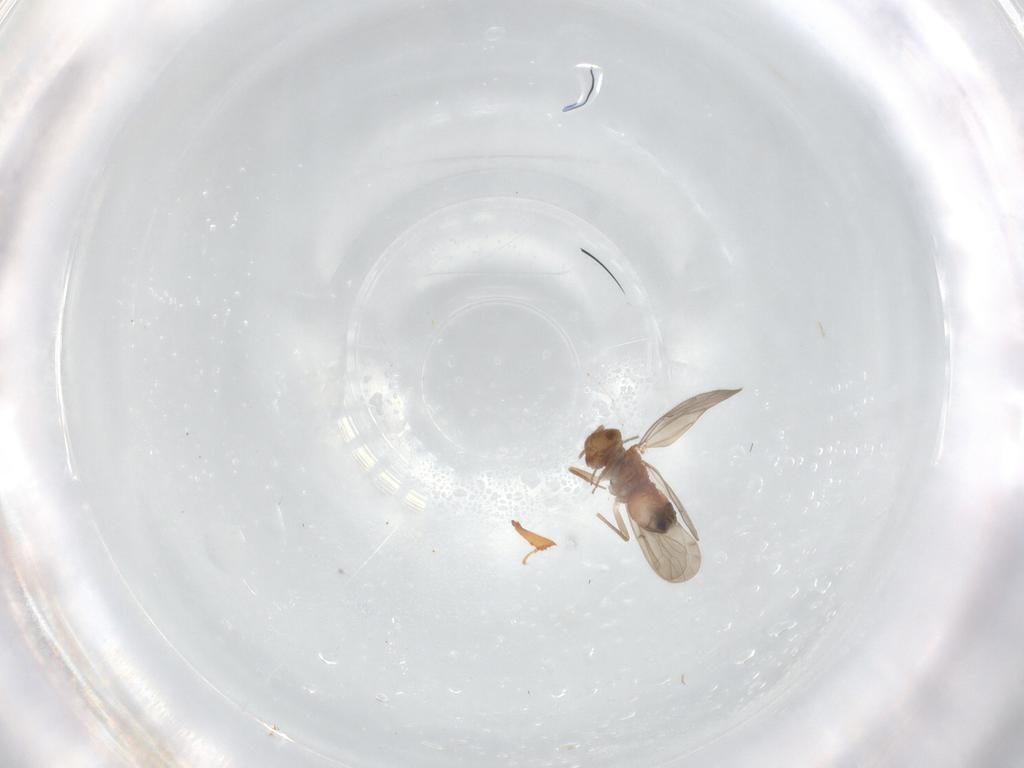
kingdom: Animalia
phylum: Arthropoda
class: Insecta
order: Psocodea
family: Ectopsocidae
